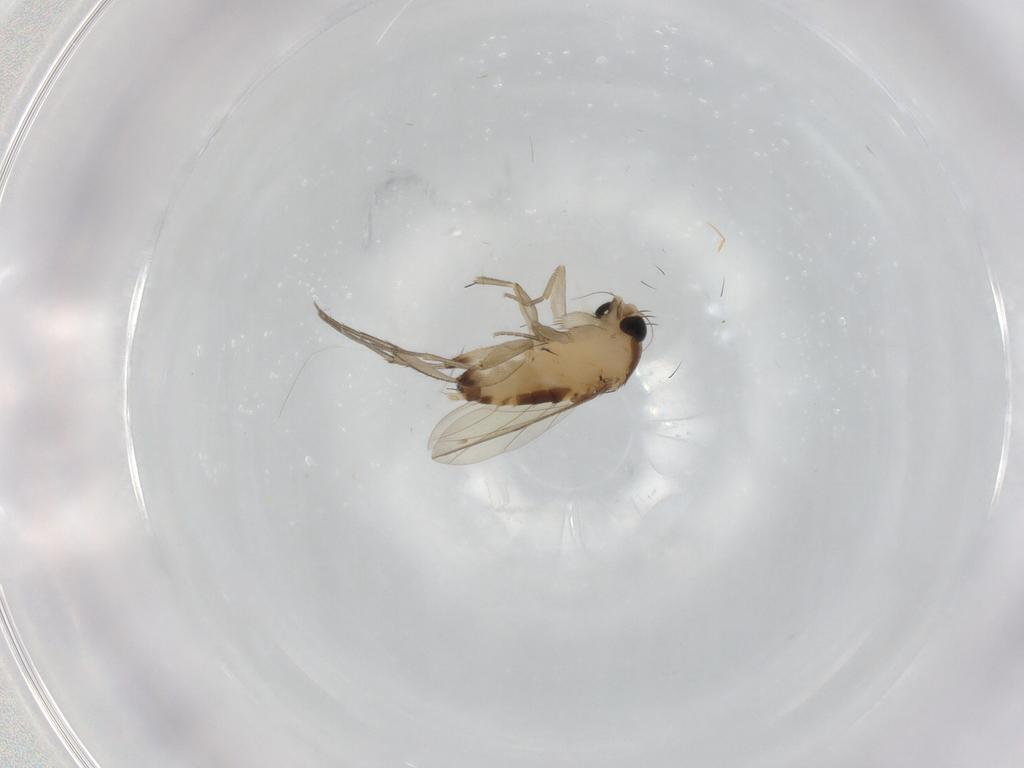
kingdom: Animalia
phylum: Arthropoda
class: Insecta
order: Diptera
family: Phoridae
